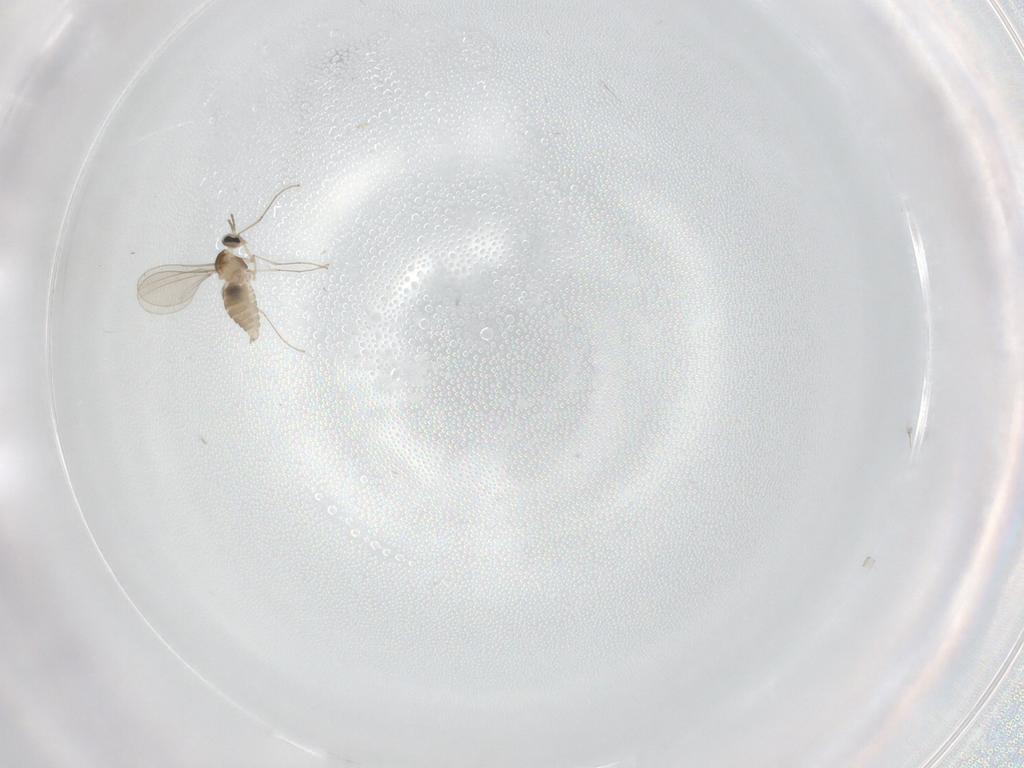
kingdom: Animalia
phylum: Arthropoda
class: Insecta
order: Diptera
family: Cecidomyiidae
